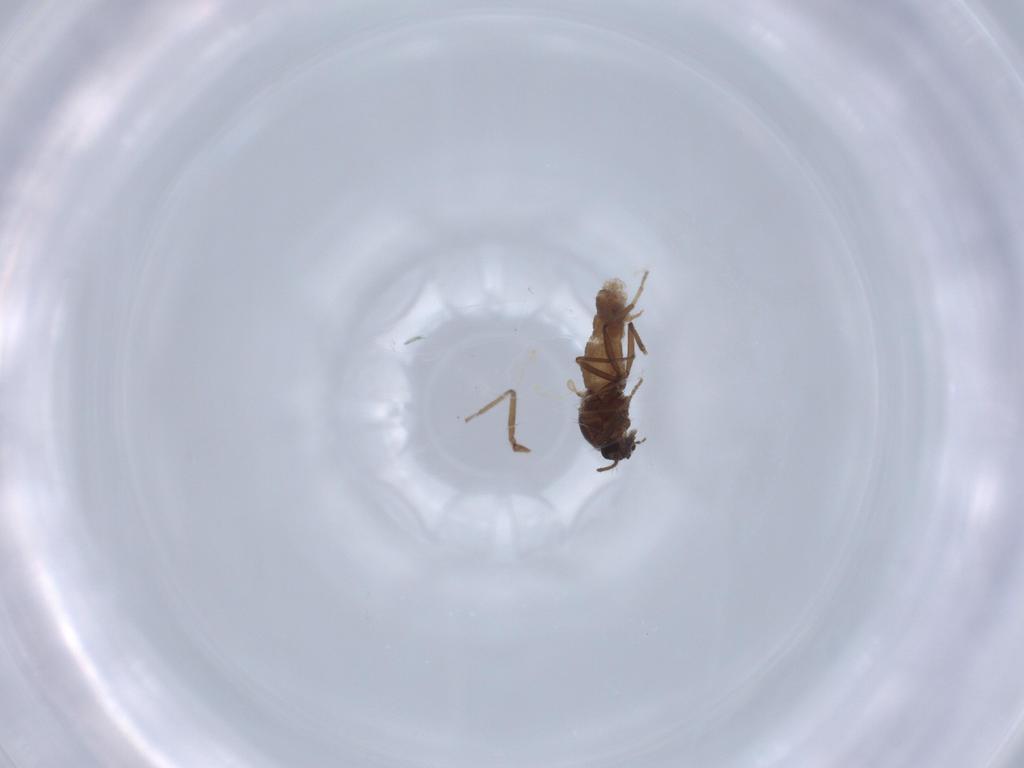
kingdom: Animalia
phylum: Arthropoda
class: Insecta
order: Diptera
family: Ceratopogonidae
